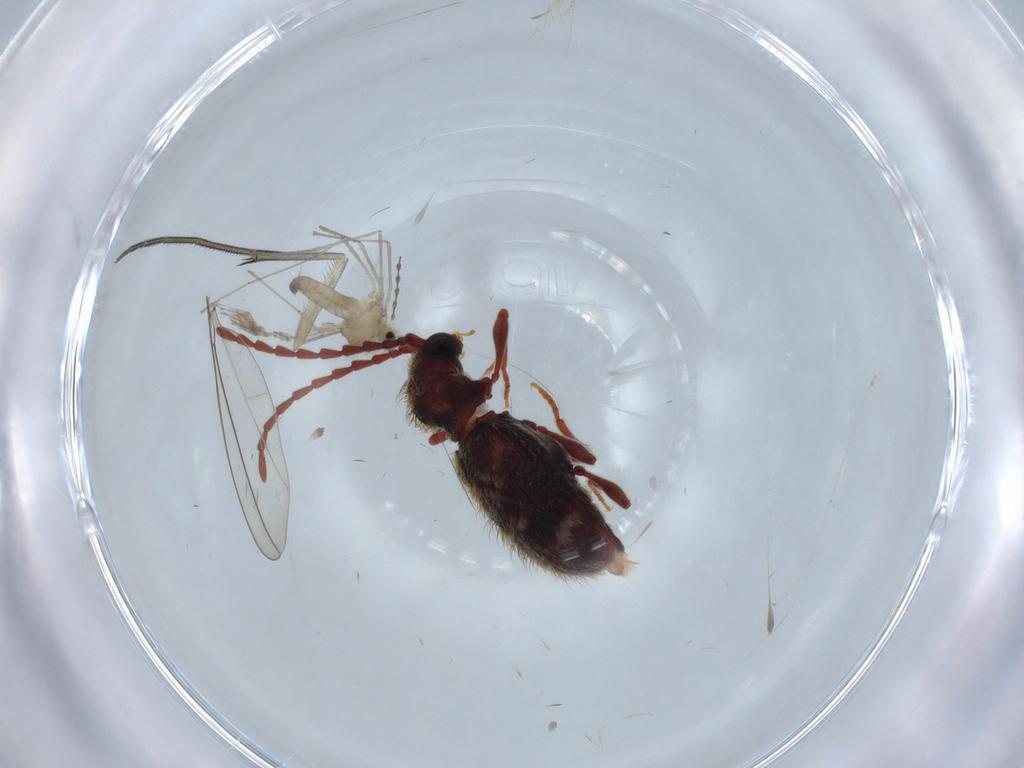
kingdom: Animalia
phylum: Arthropoda
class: Insecta
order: Diptera
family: Cecidomyiidae
